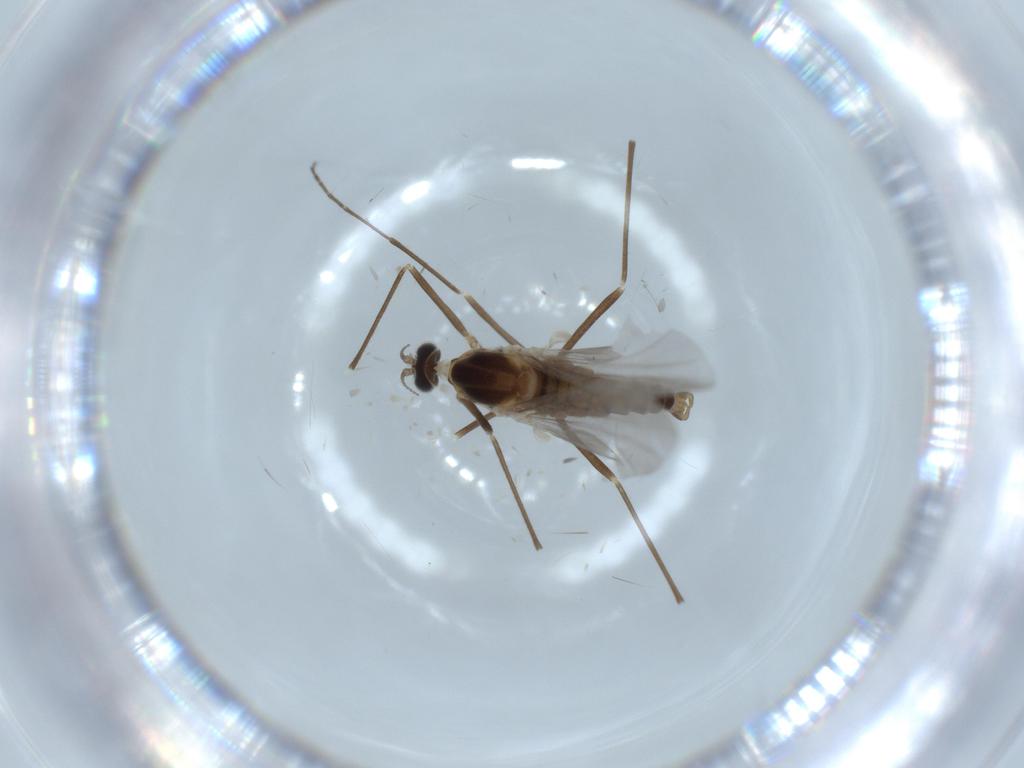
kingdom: Animalia
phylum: Arthropoda
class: Insecta
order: Diptera
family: Cecidomyiidae
